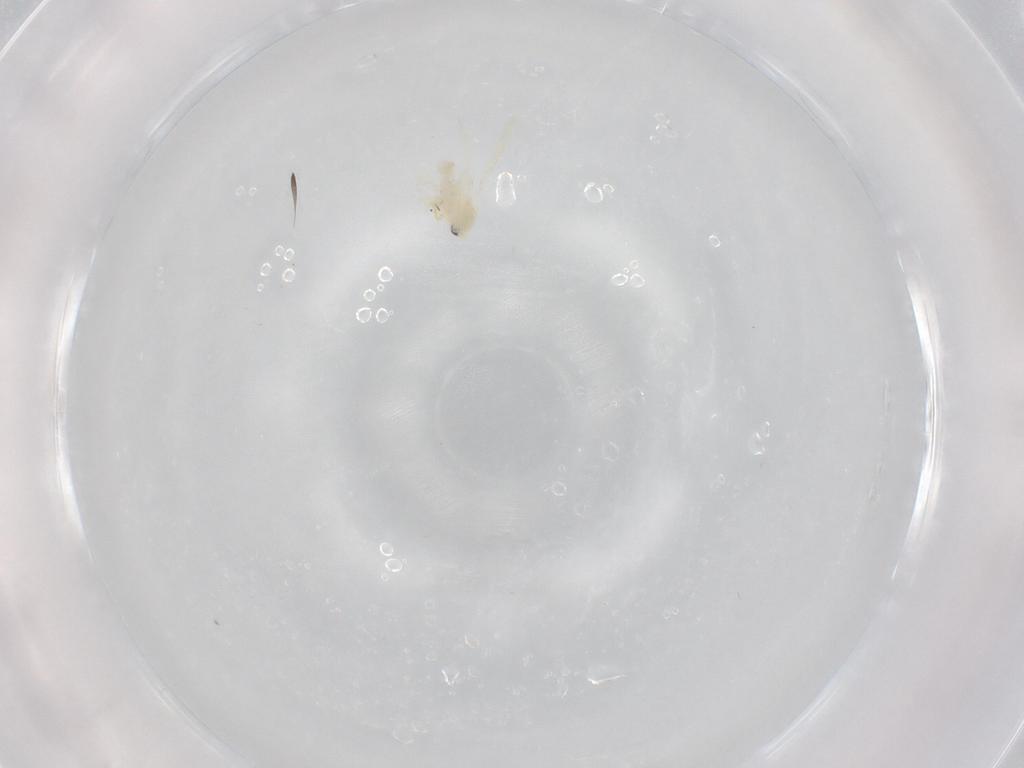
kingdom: Animalia
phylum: Arthropoda
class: Insecta
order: Hemiptera
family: Aleyrodidae
